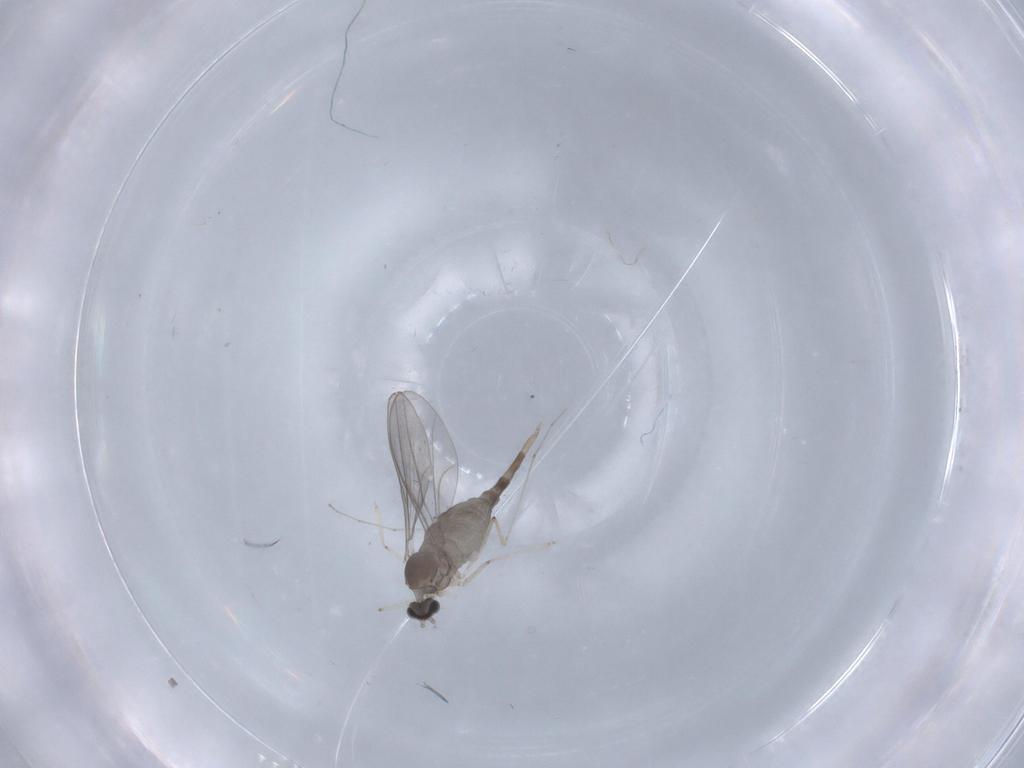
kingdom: Animalia
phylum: Arthropoda
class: Insecta
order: Diptera
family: Cecidomyiidae
